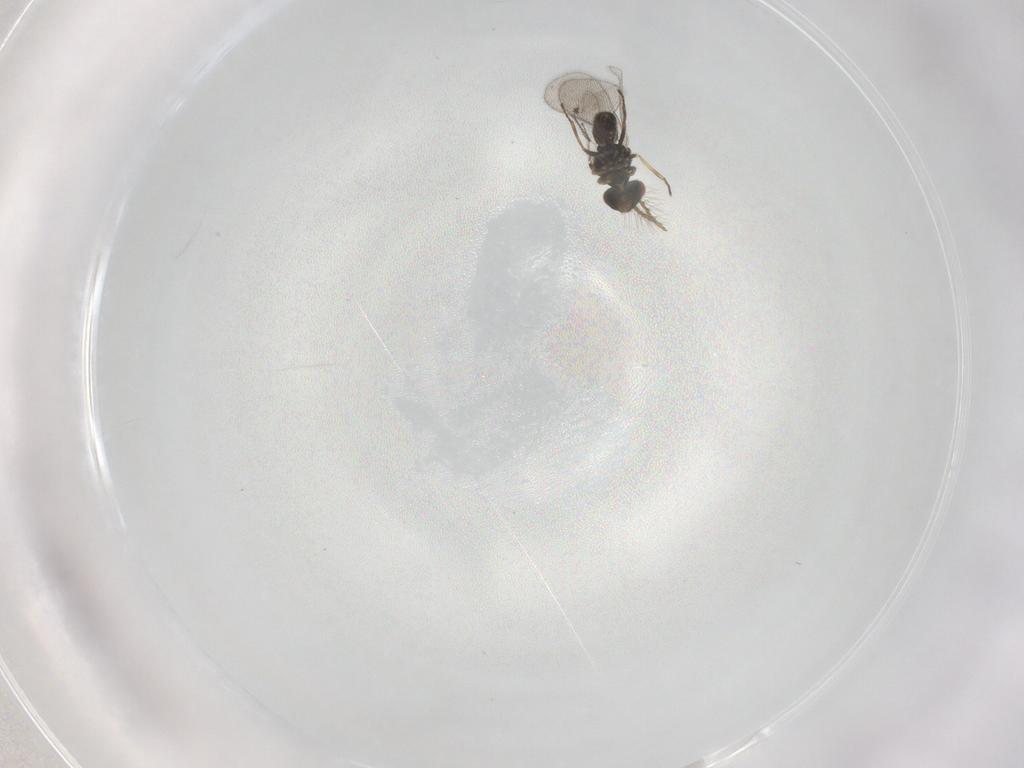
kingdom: Animalia
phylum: Arthropoda
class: Insecta
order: Hymenoptera
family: Eulophidae
